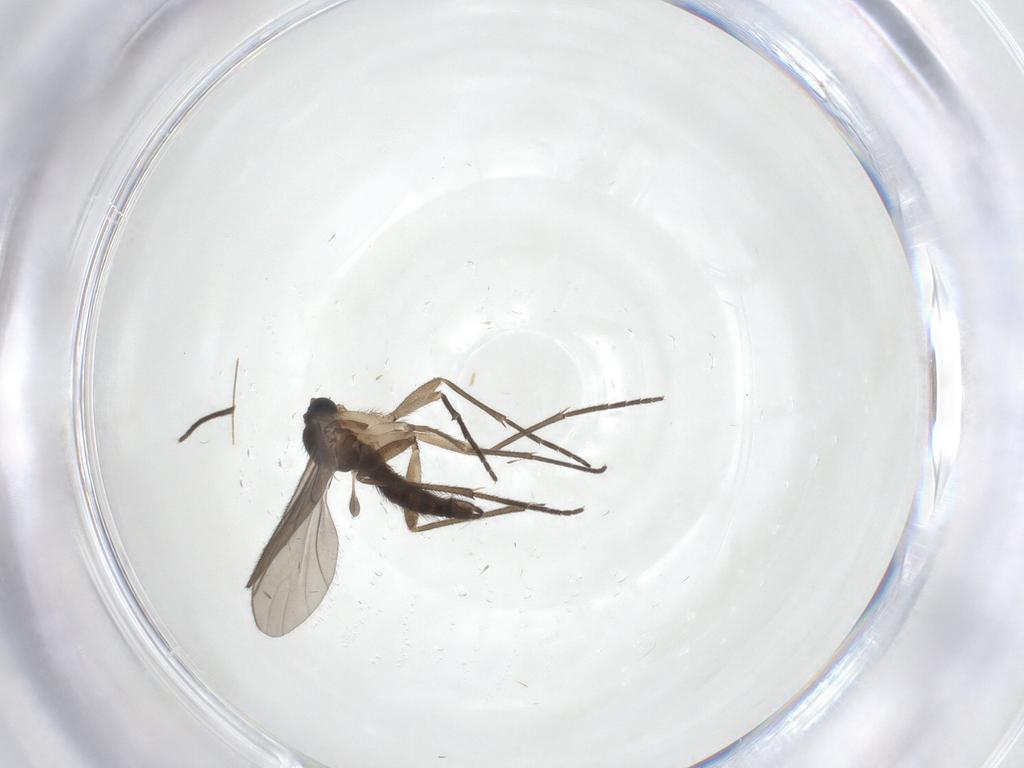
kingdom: Animalia
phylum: Arthropoda
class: Insecta
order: Diptera
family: Sciaridae
